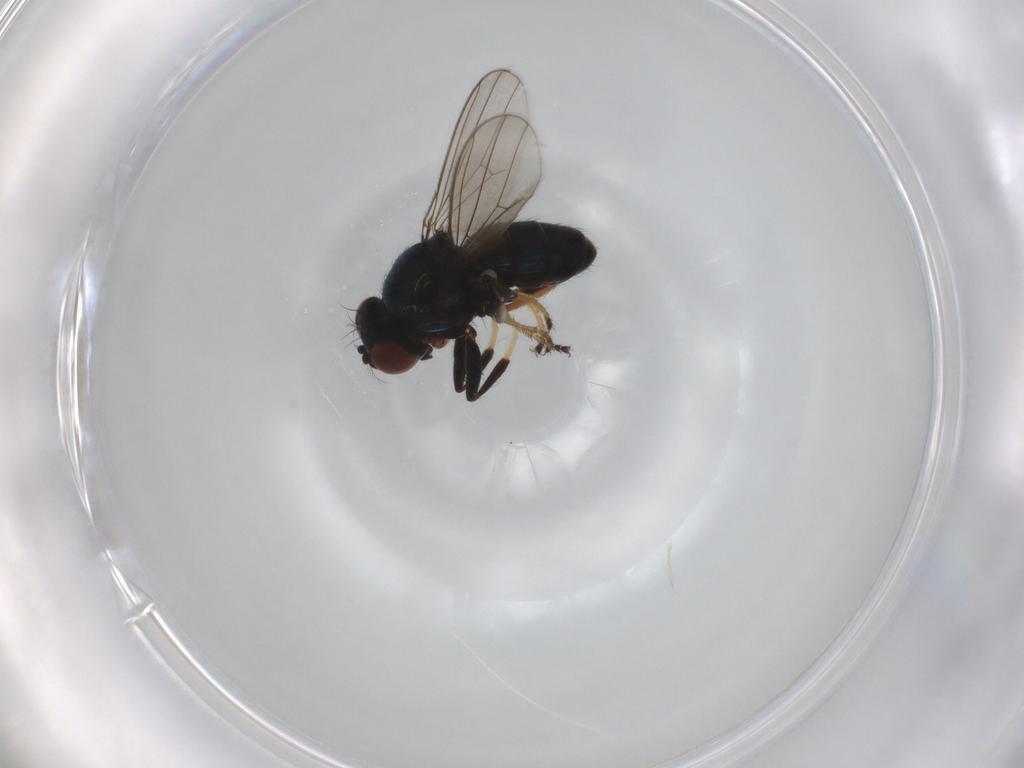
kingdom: Animalia
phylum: Arthropoda
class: Insecta
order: Diptera
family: Ephydridae
